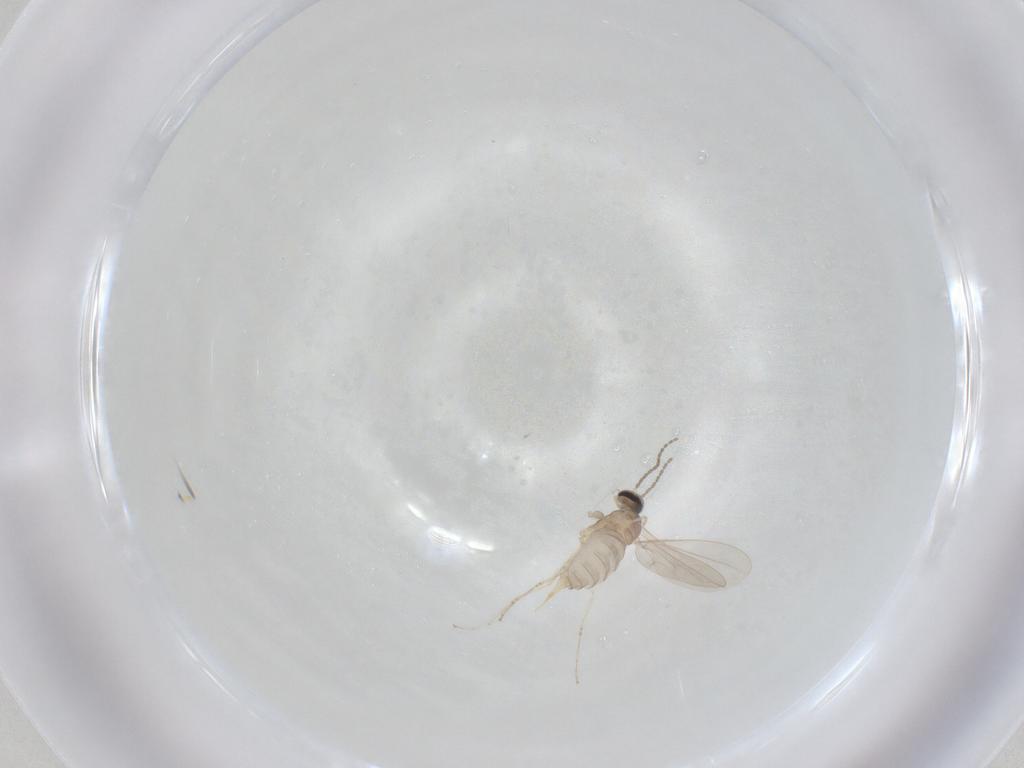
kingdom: Animalia
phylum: Arthropoda
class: Insecta
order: Diptera
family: Cecidomyiidae
